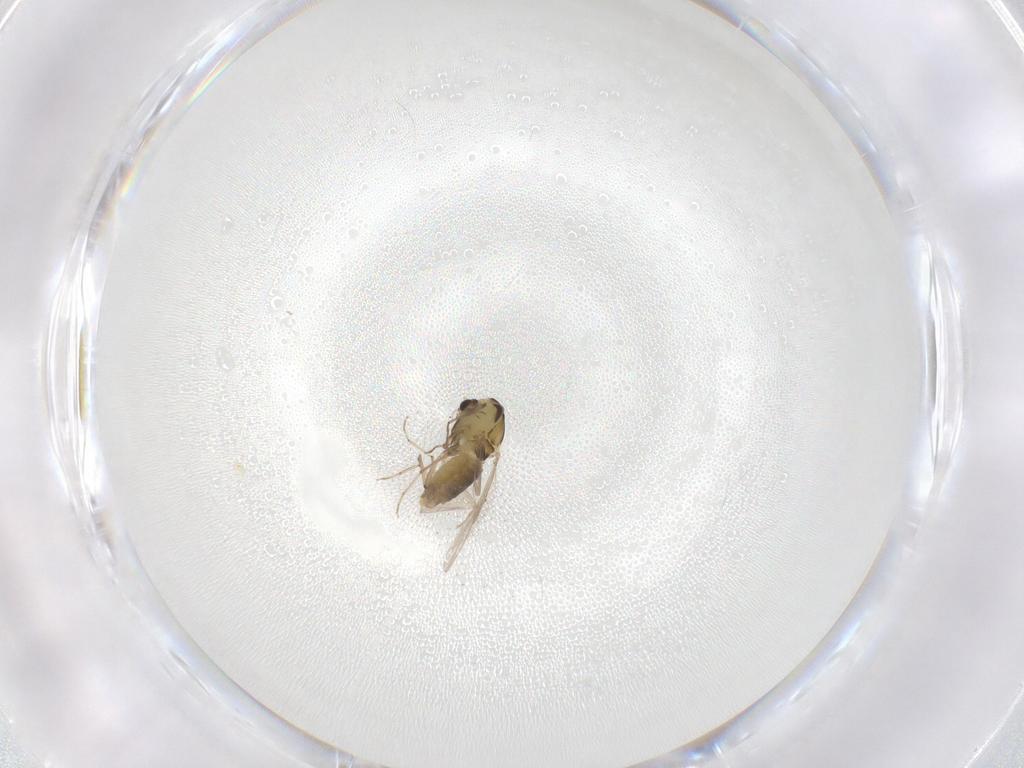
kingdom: Animalia
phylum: Arthropoda
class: Insecta
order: Diptera
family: Chironomidae
